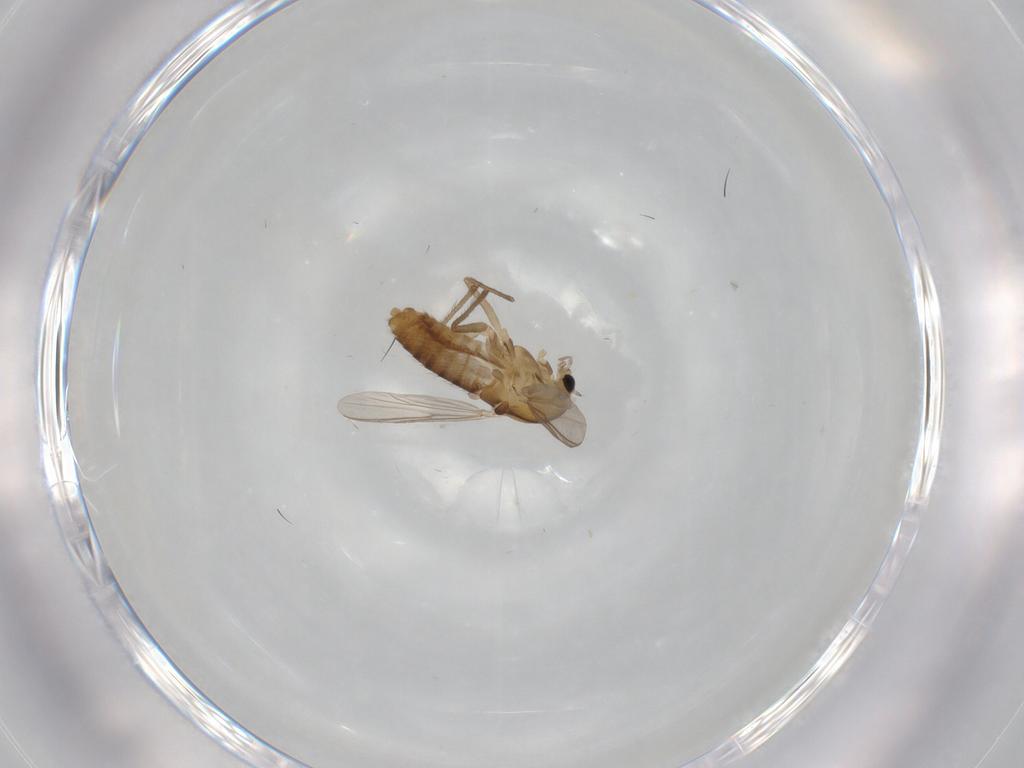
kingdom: Animalia
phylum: Arthropoda
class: Insecta
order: Diptera
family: Chironomidae
